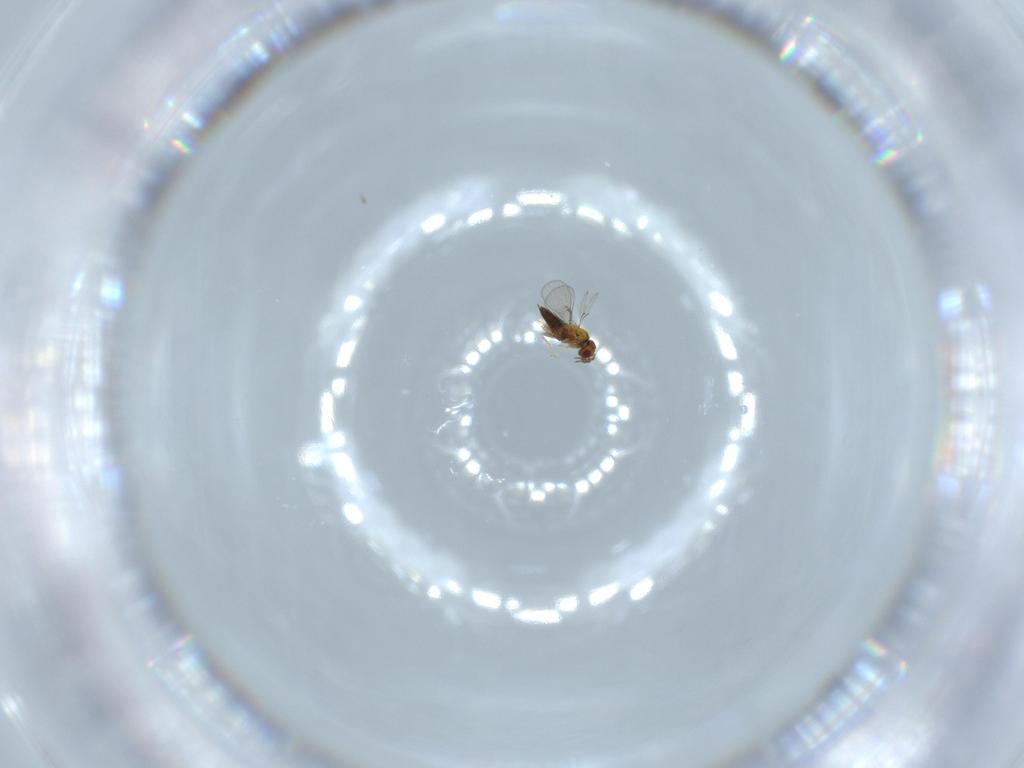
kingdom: Animalia
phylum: Arthropoda
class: Insecta
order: Hymenoptera
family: Trichogrammatidae
